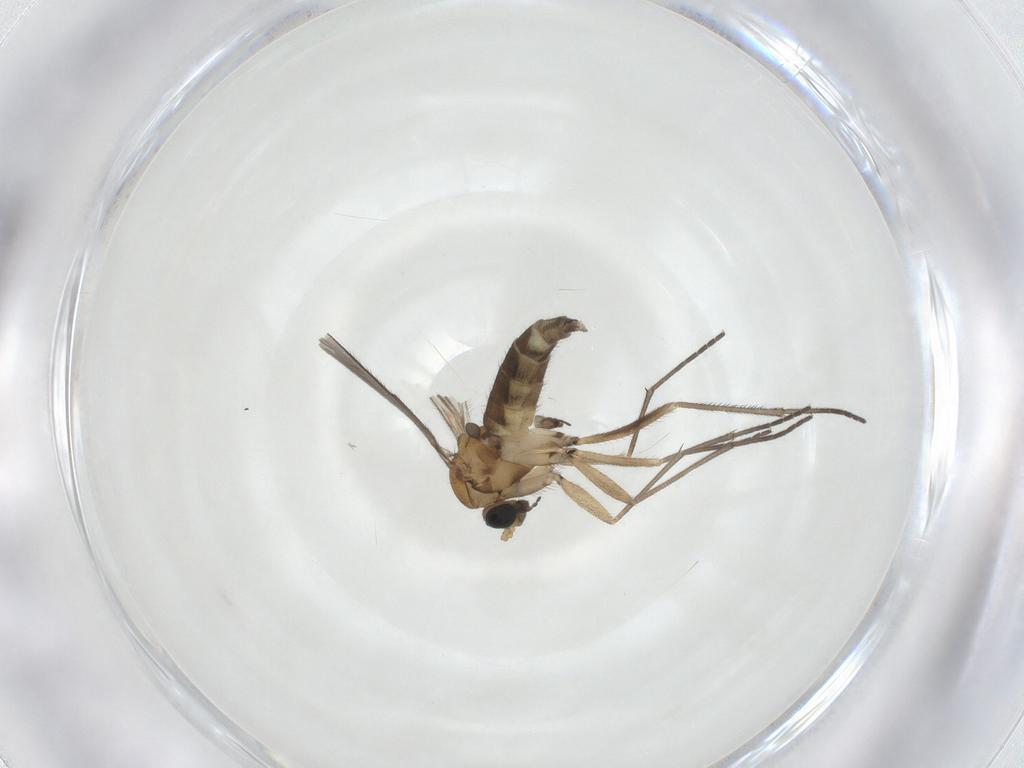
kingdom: Animalia
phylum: Arthropoda
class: Insecta
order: Diptera
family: Sciaridae
